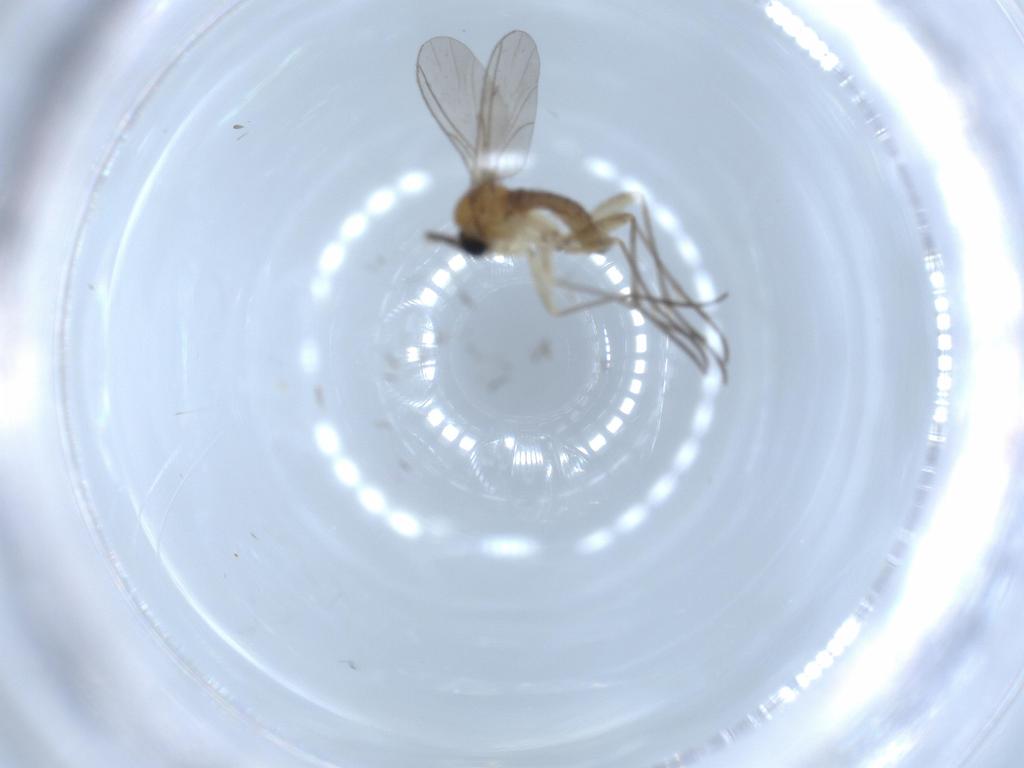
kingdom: Animalia
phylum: Arthropoda
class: Insecta
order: Diptera
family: Sciaridae
